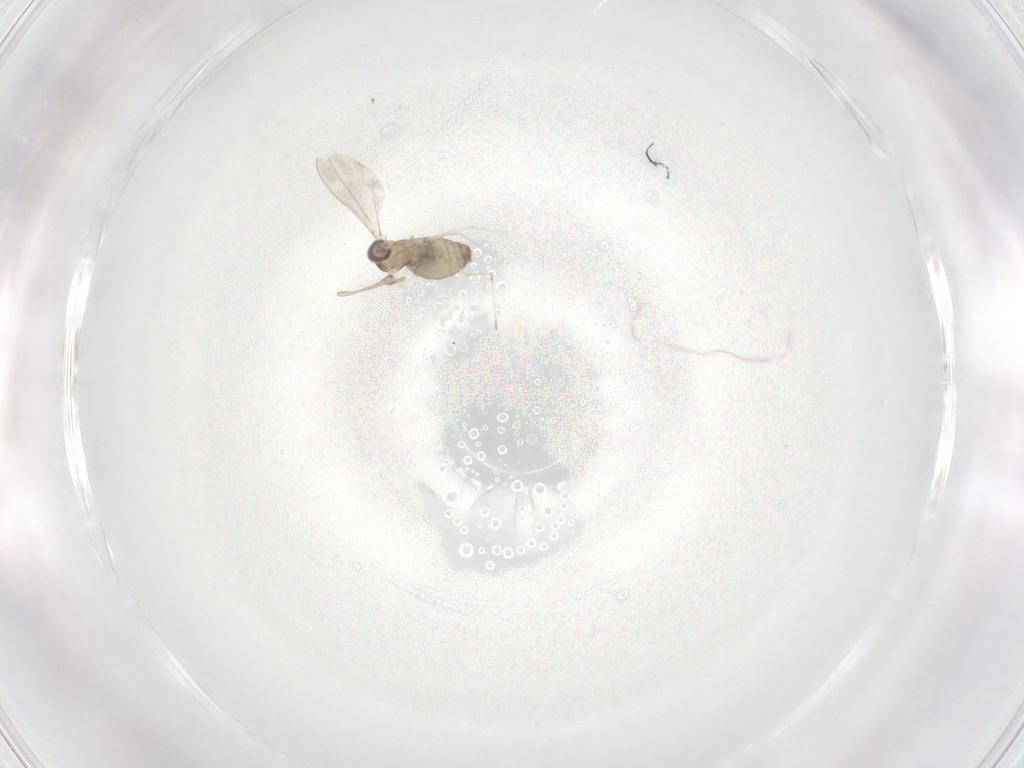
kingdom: Animalia
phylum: Arthropoda
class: Insecta
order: Diptera
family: Cecidomyiidae
